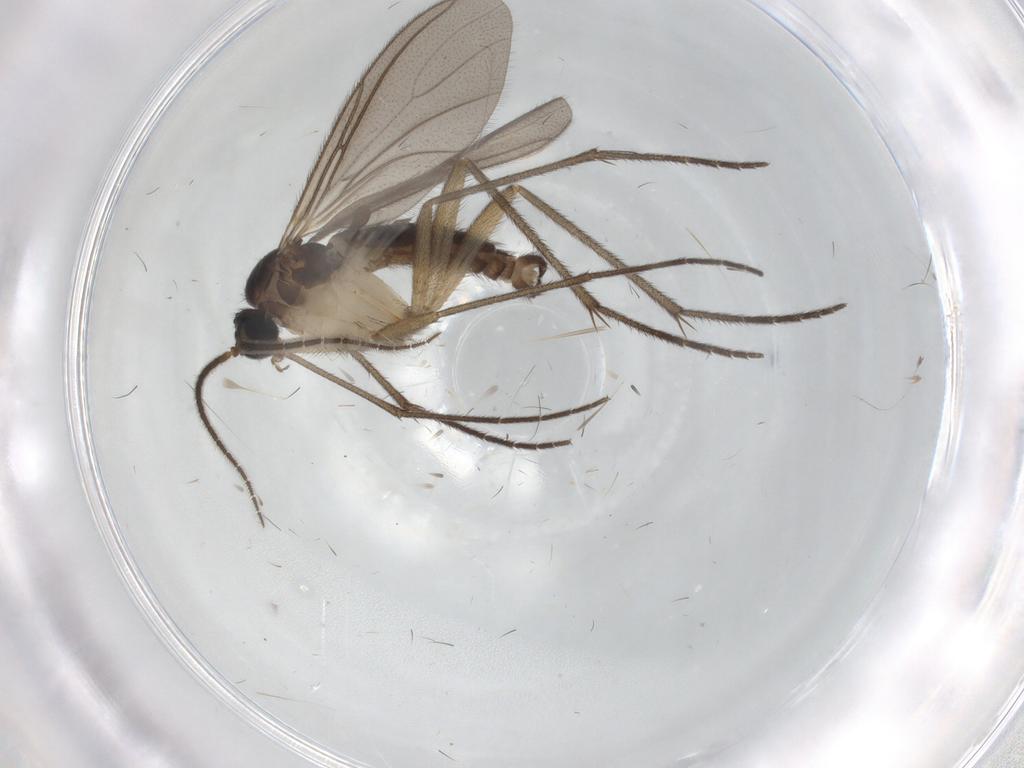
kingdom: Animalia
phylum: Arthropoda
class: Insecta
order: Diptera
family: Sciaridae
